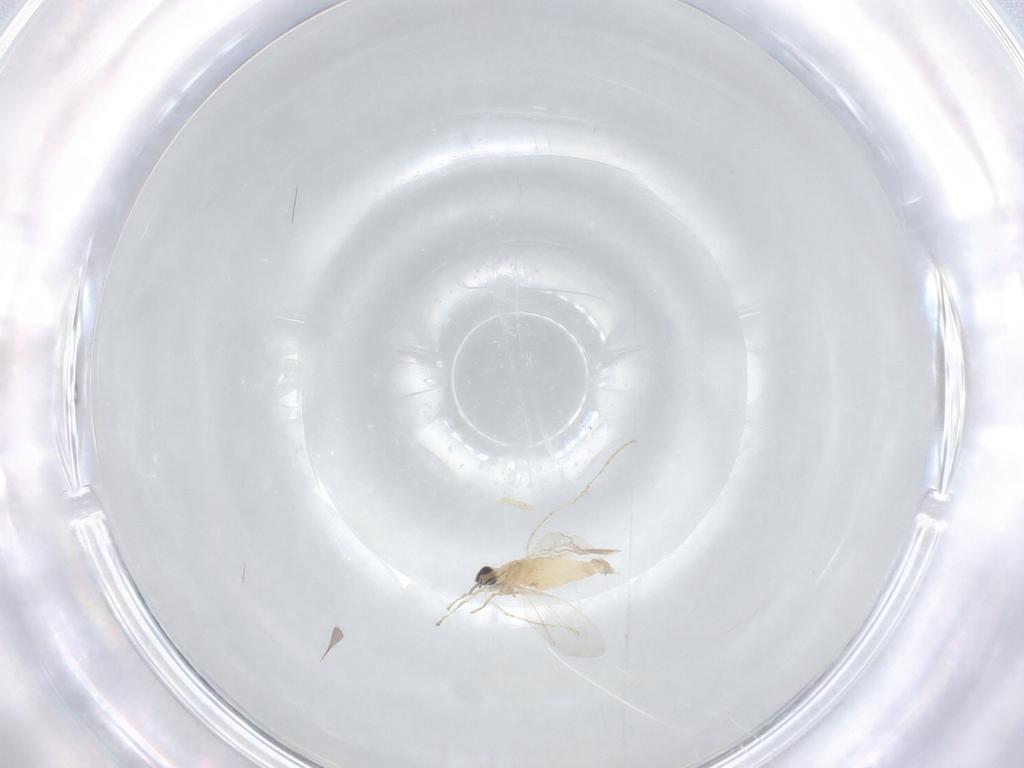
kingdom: Animalia
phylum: Arthropoda
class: Insecta
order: Diptera
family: Cecidomyiidae
